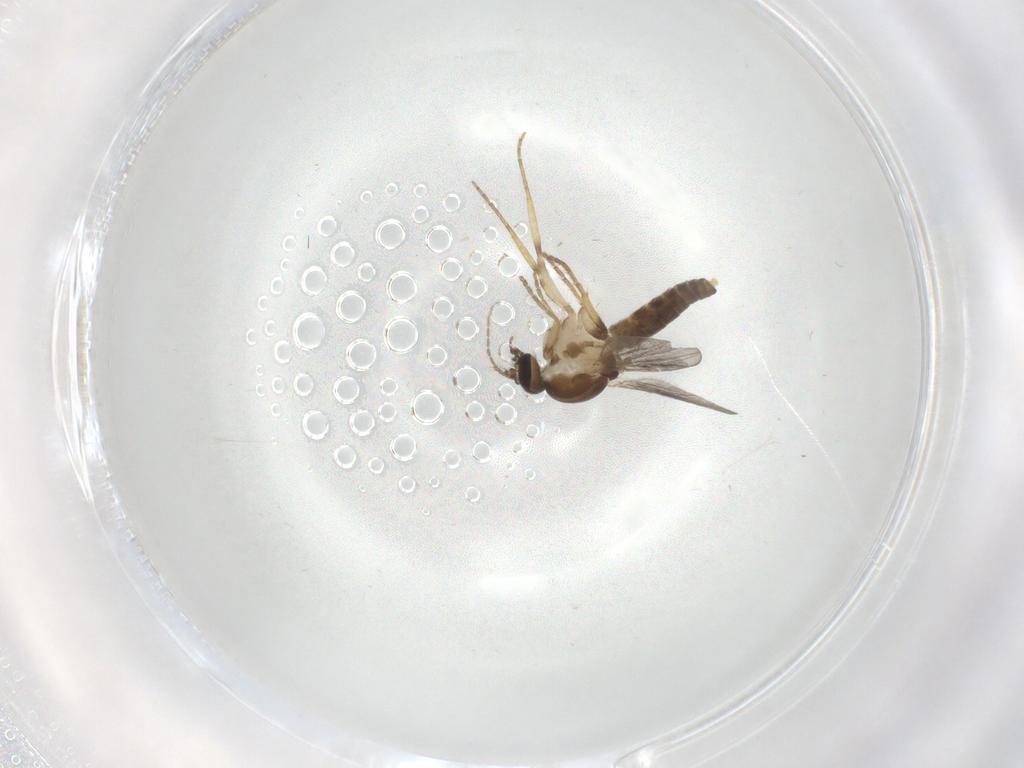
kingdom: Animalia
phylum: Arthropoda
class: Insecta
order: Diptera
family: Ceratopogonidae
